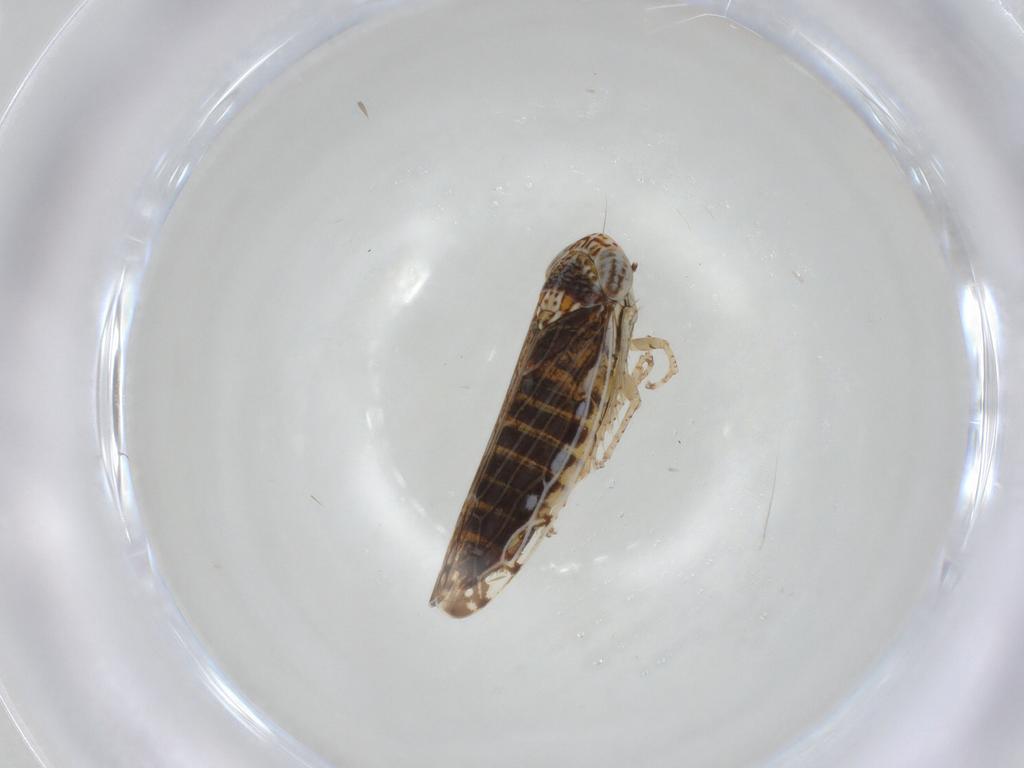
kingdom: Animalia
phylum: Arthropoda
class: Insecta
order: Hemiptera
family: Cicadellidae
